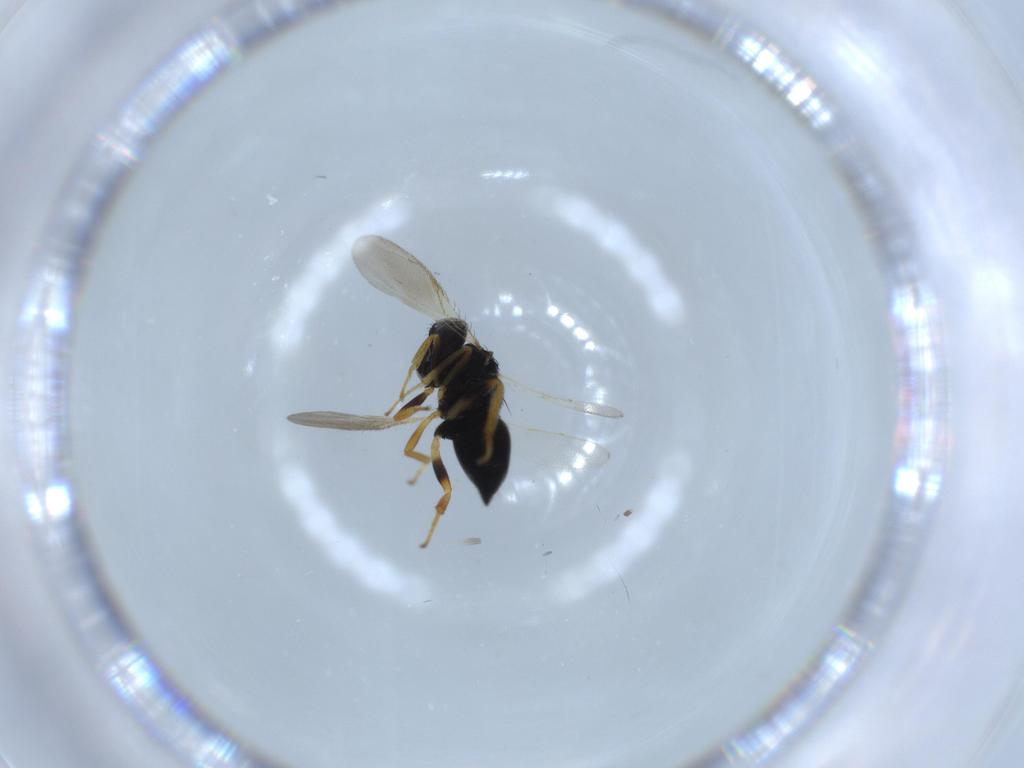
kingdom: Animalia
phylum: Arthropoda
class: Insecta
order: Hymenoptera
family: Pteromalidae
